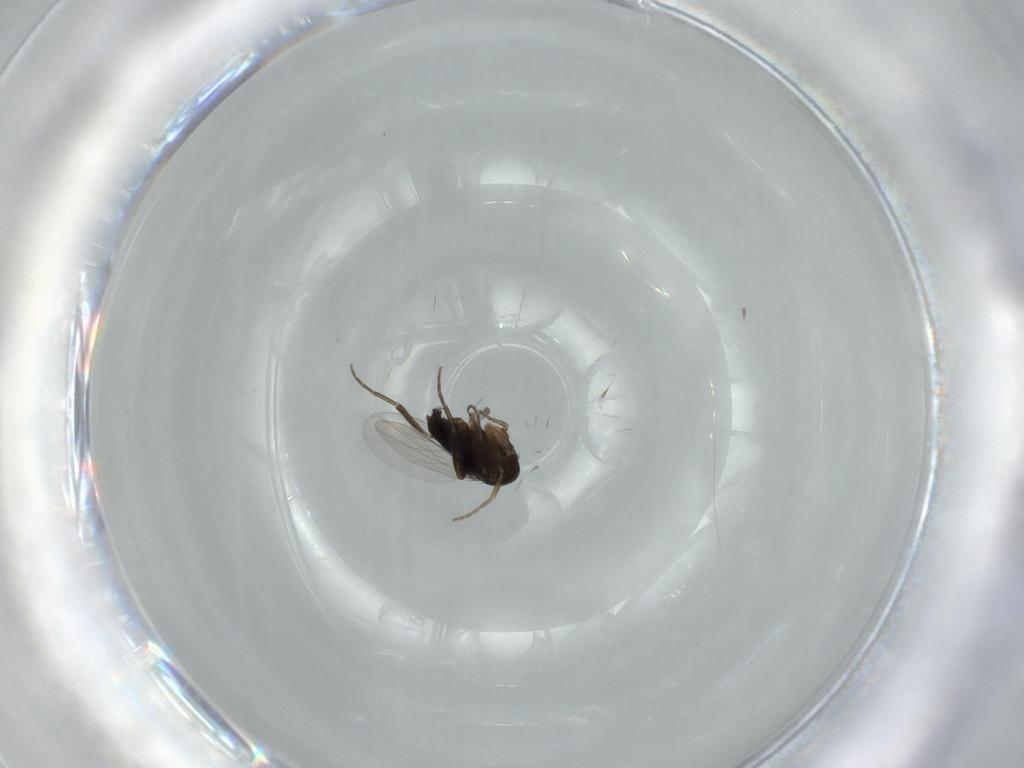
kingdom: Animalia
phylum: Arthropoda
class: Insecta
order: Diptera
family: Phoridae
